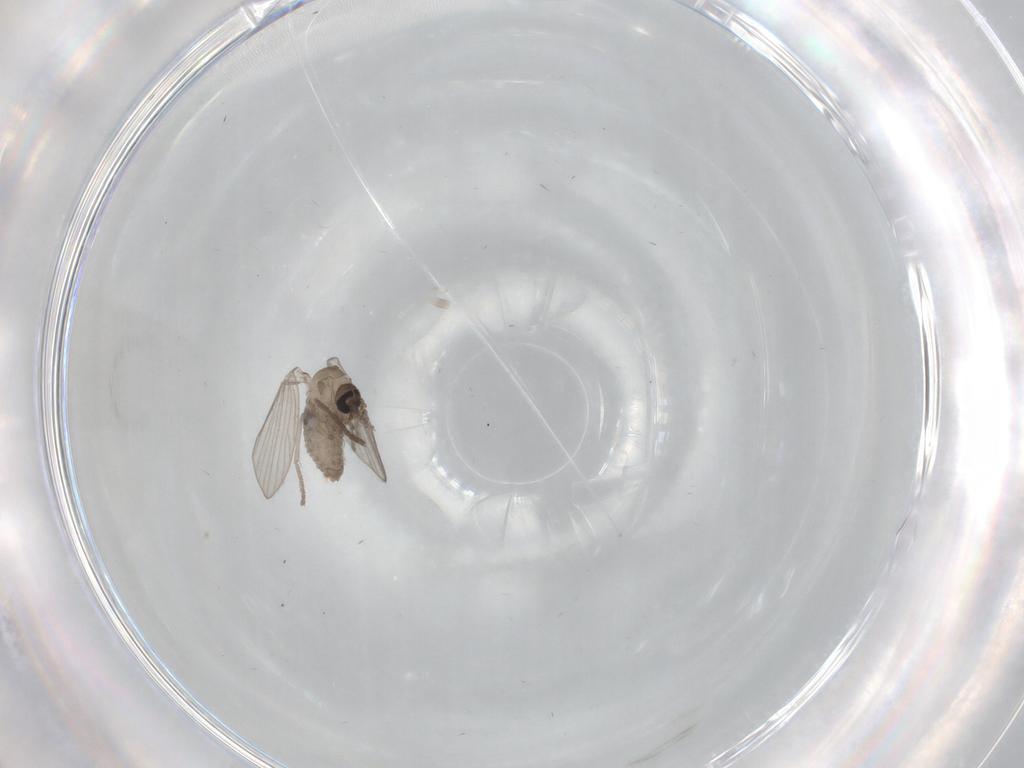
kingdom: Animalia
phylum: Arthropoda
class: Insecta
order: Diptera
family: Psychodidae
